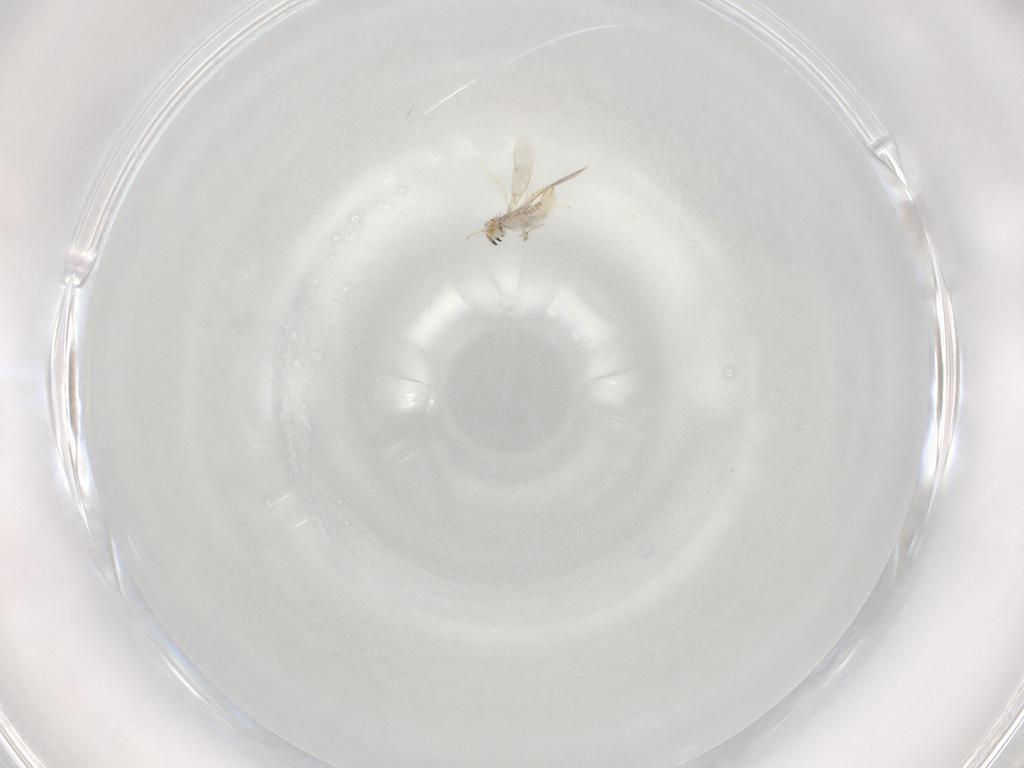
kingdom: Animalia
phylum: Arthropoda
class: Insecta
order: Hymenoptera
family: Aphelinidae
